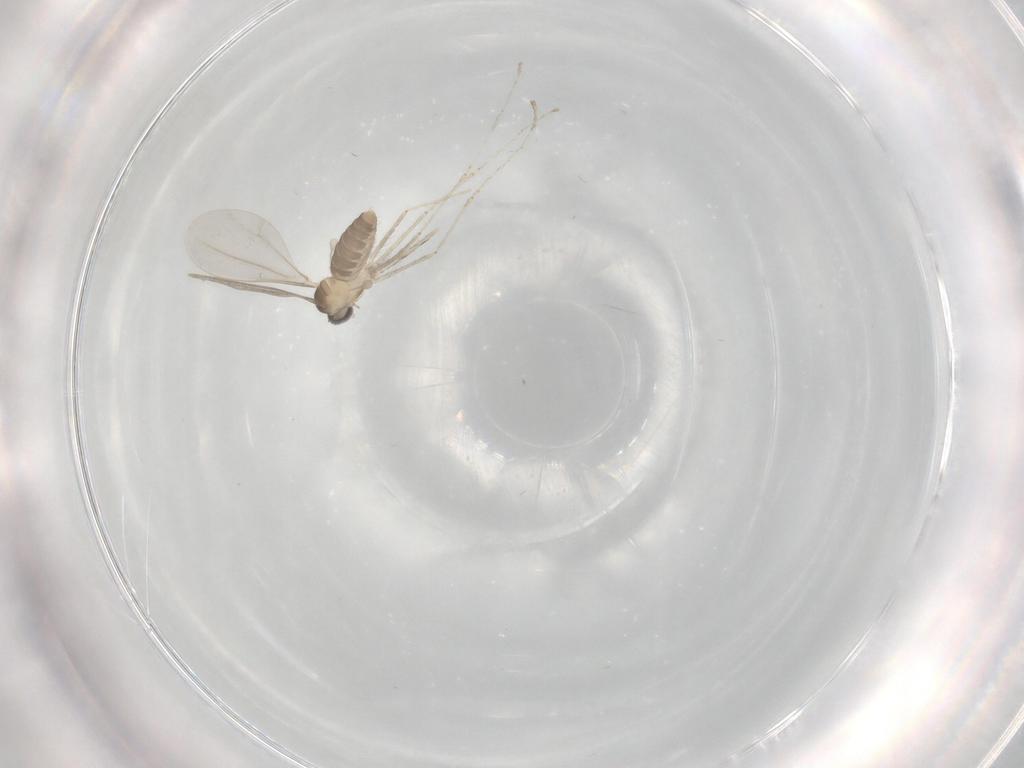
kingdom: Animalia
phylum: Arthropoda
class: Insecta
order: Diptera
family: Cecidomyiidae
